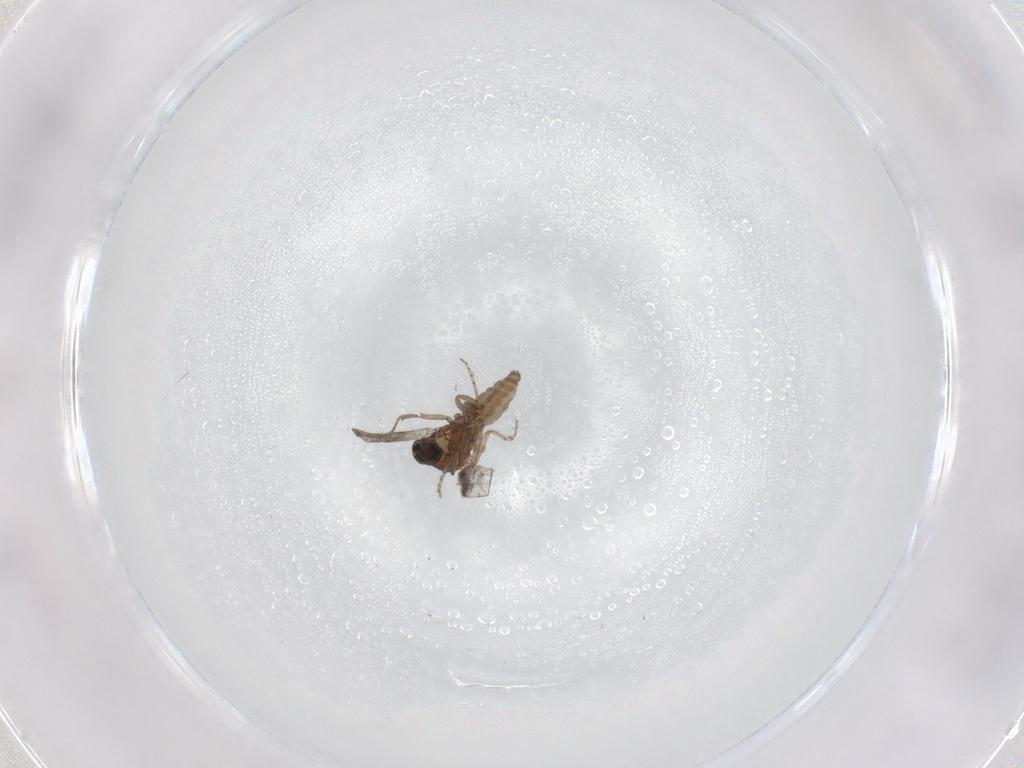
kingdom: Animalia
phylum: Arthropoda
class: Insecta
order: Diptera
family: Ceratopogonidae
